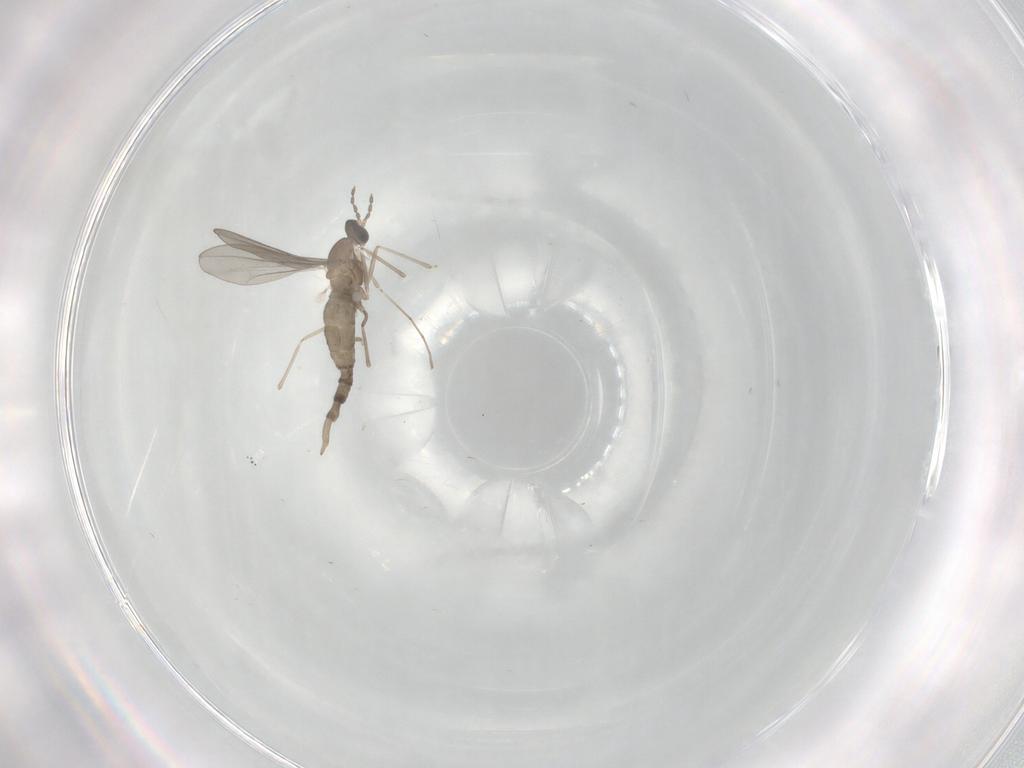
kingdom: Animalia
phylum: Arthropoda
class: Insecta
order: Diptera
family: Cecidomyiidae
